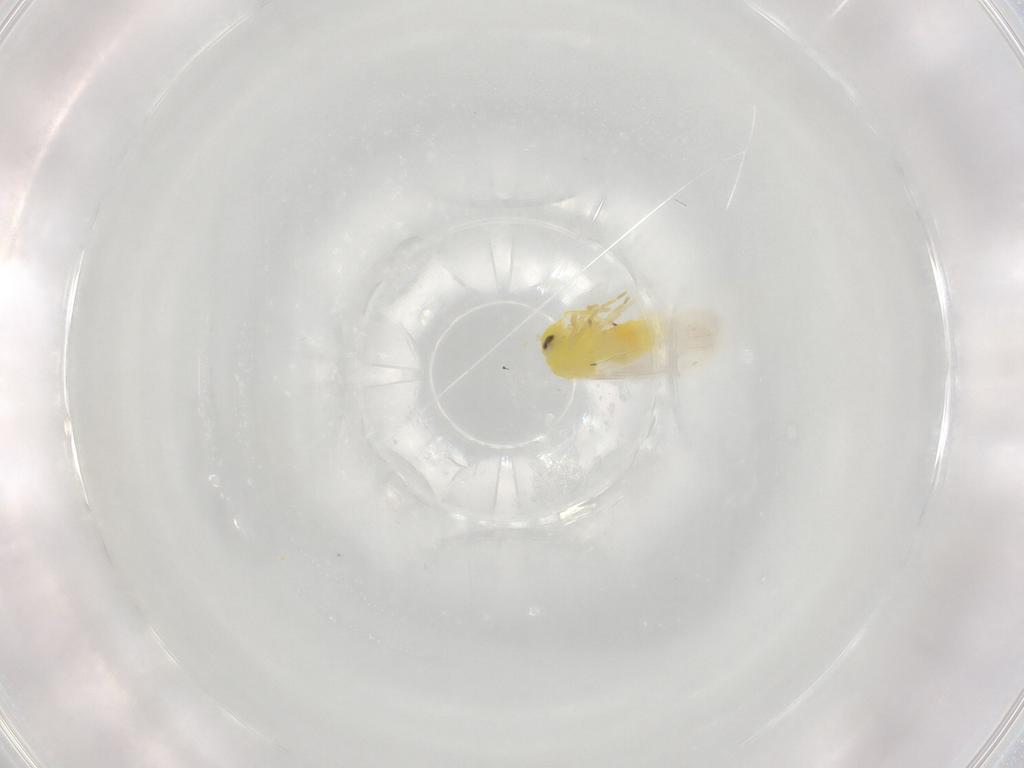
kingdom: Animalia
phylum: Arthropoda
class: Insecta
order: Hemiptera
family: Aleyrodidae
